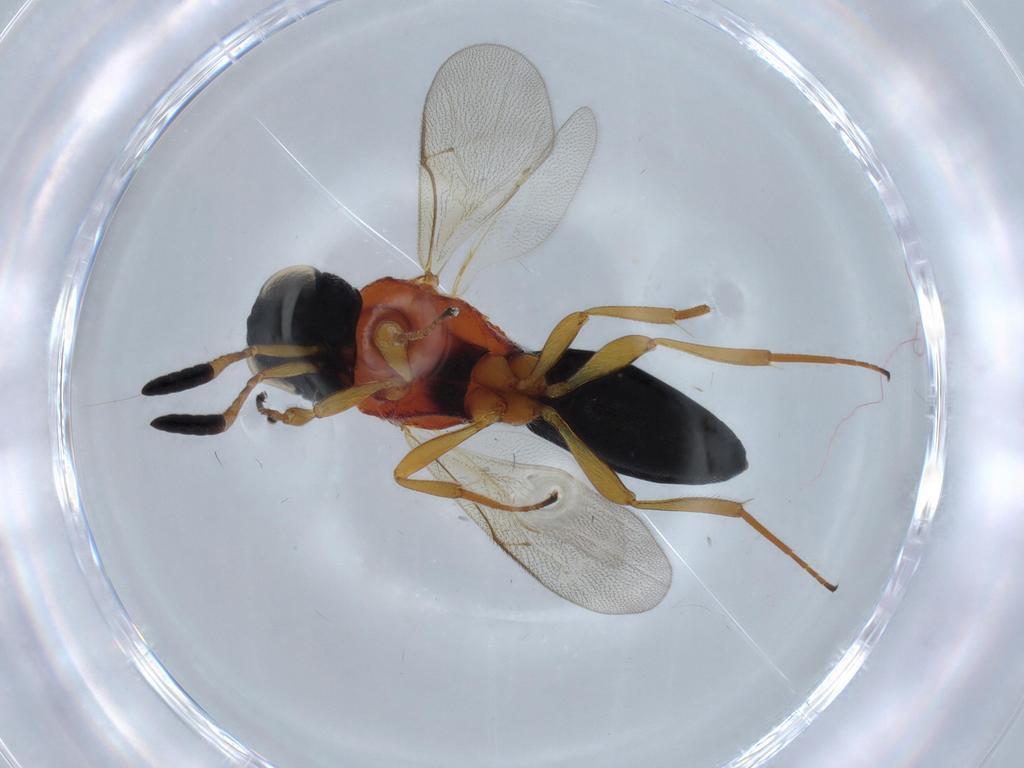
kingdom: Animalia
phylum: Arthropoda
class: Insecta
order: Hymenoptera
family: Scelionidae
